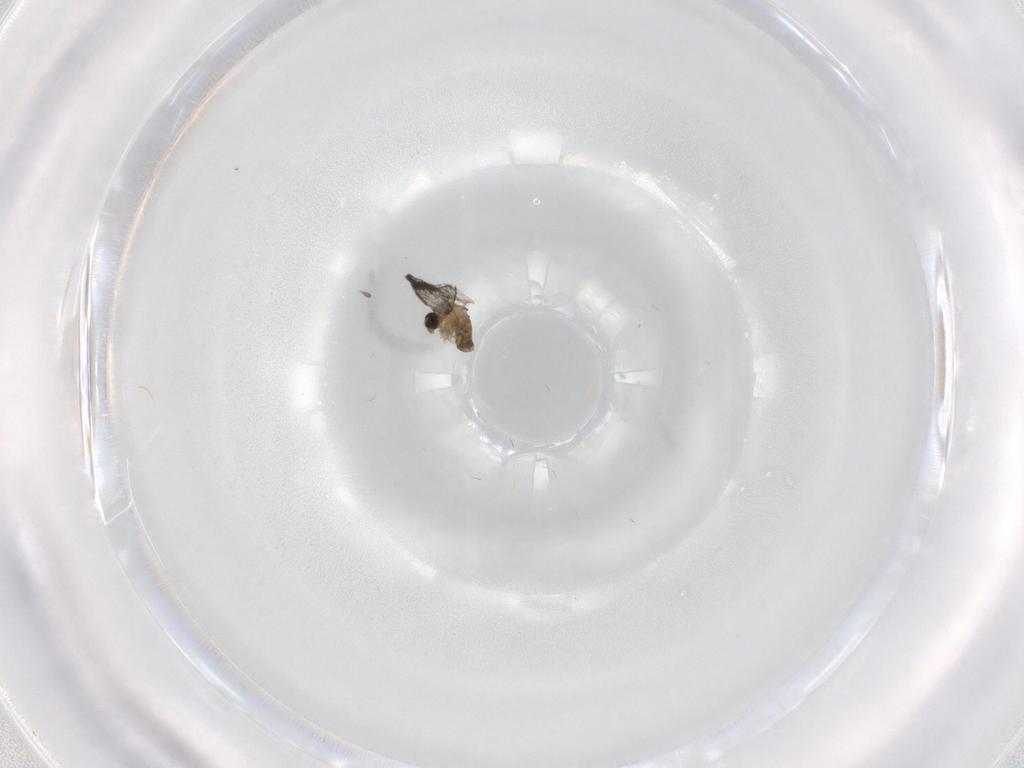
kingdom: Animalia
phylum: Arthropoda
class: Insecta
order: Diptera
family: Cecidomyiidae
